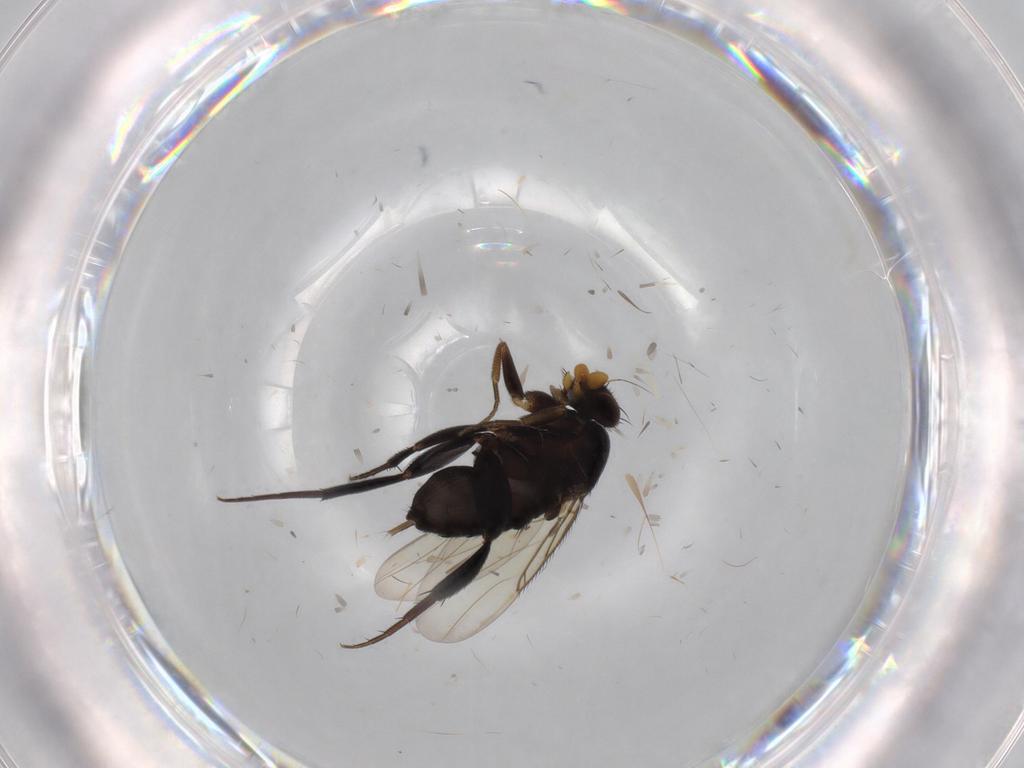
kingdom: Animalia
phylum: Arthropoda
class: Insecta
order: Diptera
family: Phoridae
